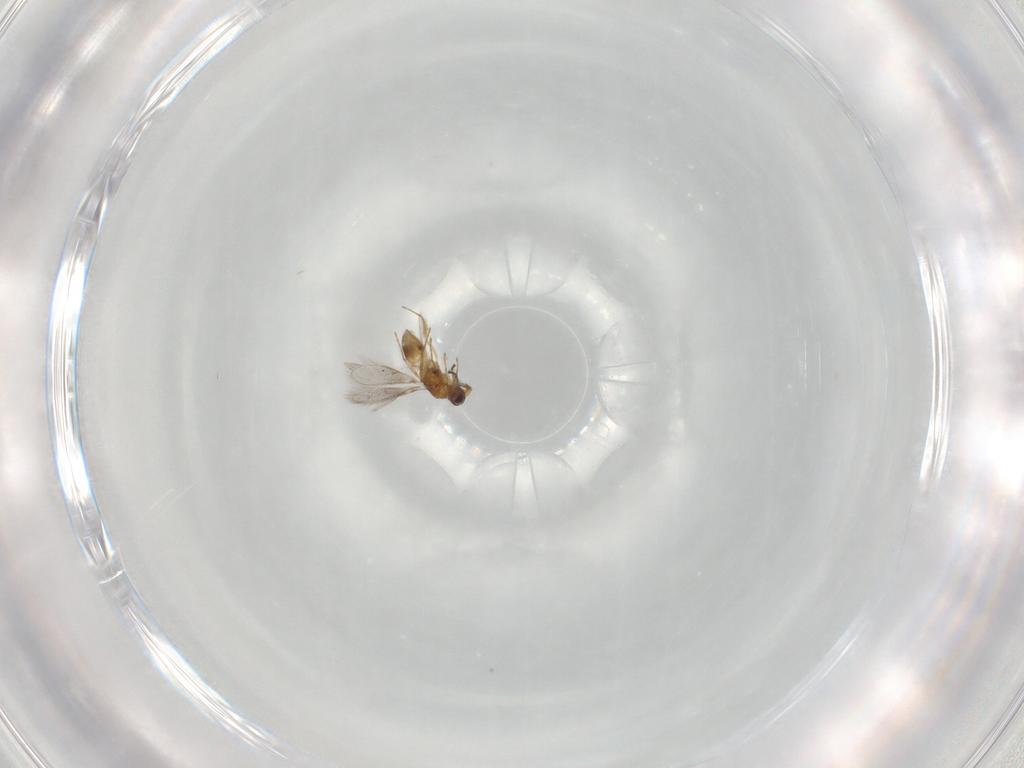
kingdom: Animalia
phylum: Arthropoda
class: Insecta
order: Hymenoptera
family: Mymaridae
